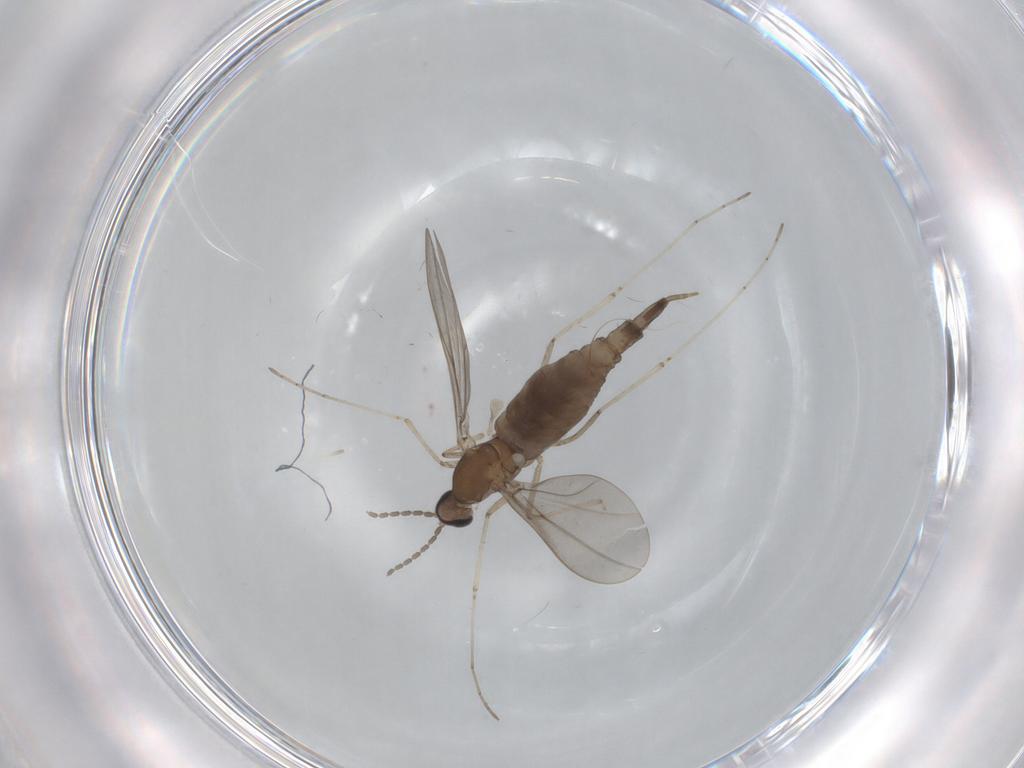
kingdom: Animalia
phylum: Arthropoda
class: Insecta
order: Diptera
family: Cecidomyiidae
